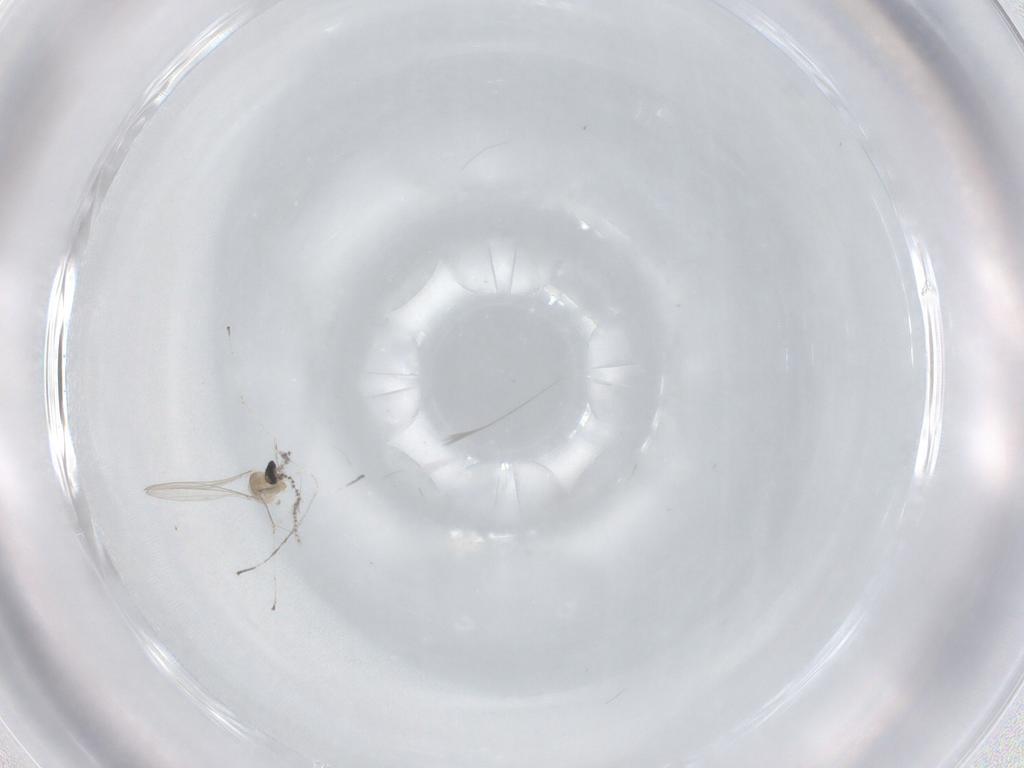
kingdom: Animalia
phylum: Arthropoda
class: Insecta
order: Diptera
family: Cecidomyiidae
